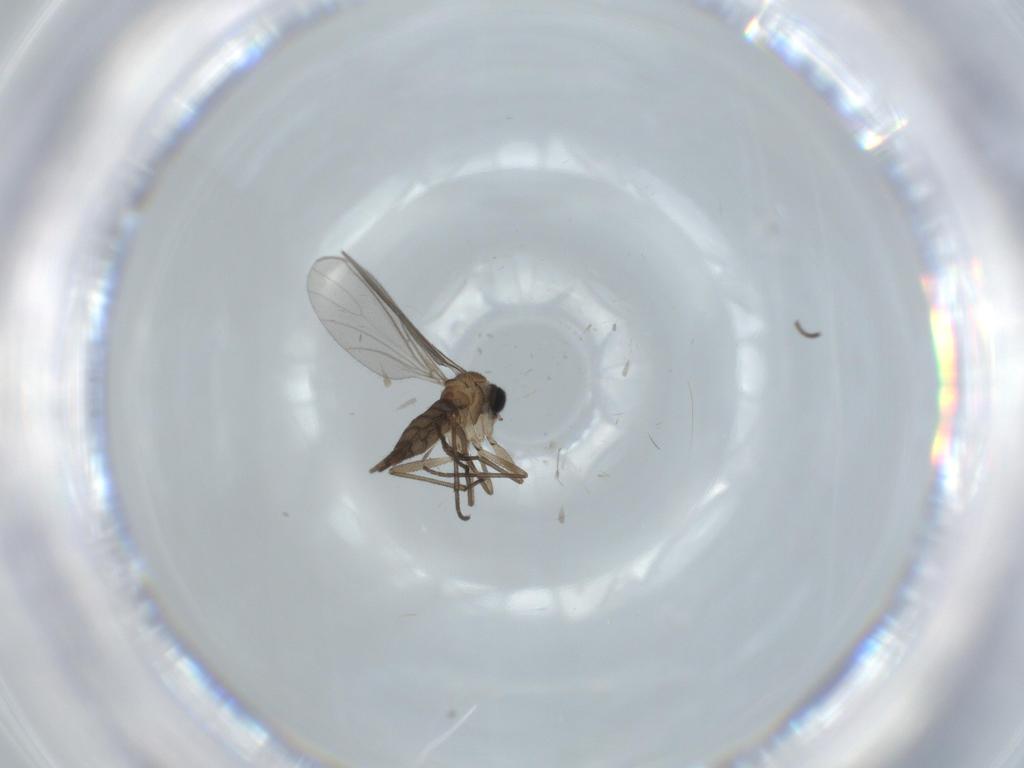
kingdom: Animalia
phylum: Arthropoda
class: Insecta
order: Diptera
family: Sciaridae
